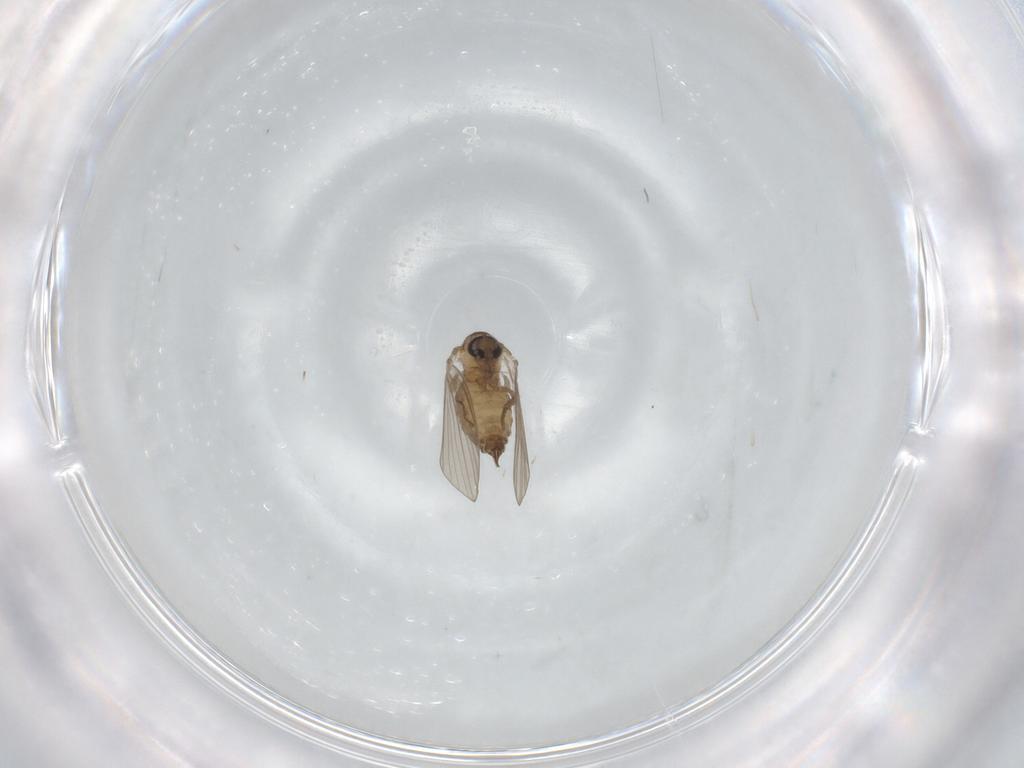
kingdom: Animalia
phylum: Arthropoda
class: Insecta
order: Diptera
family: Psychodidae
